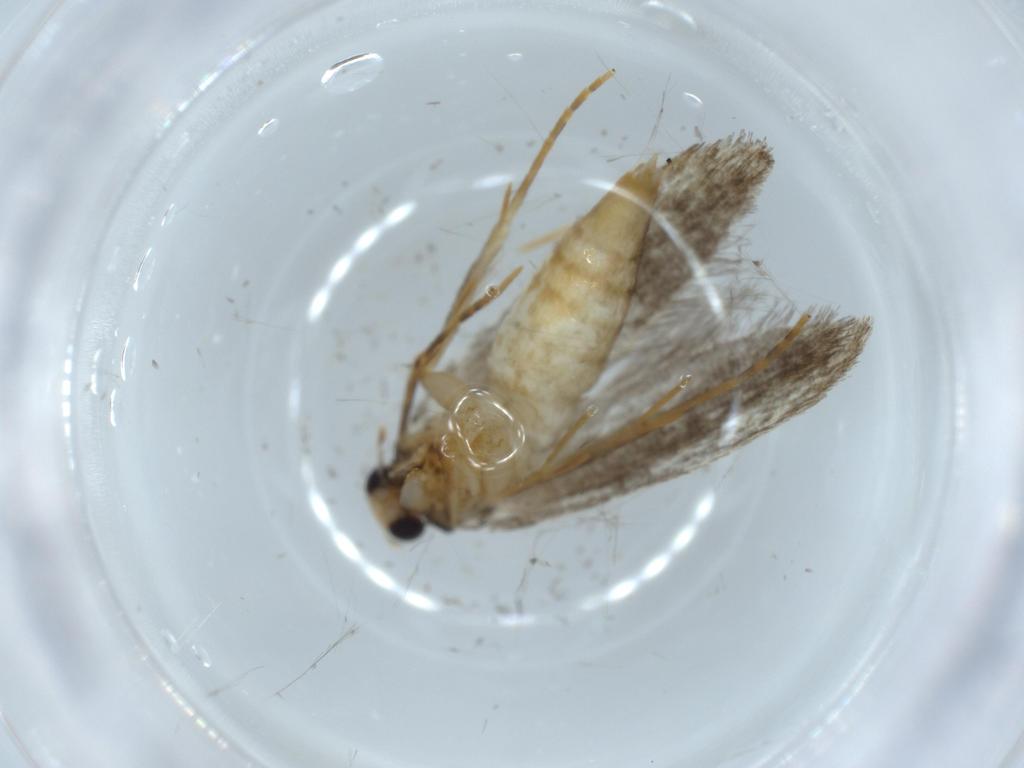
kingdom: Animalia
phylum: Arthropoda
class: Insecta
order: Lepidoptera
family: Tineidae
